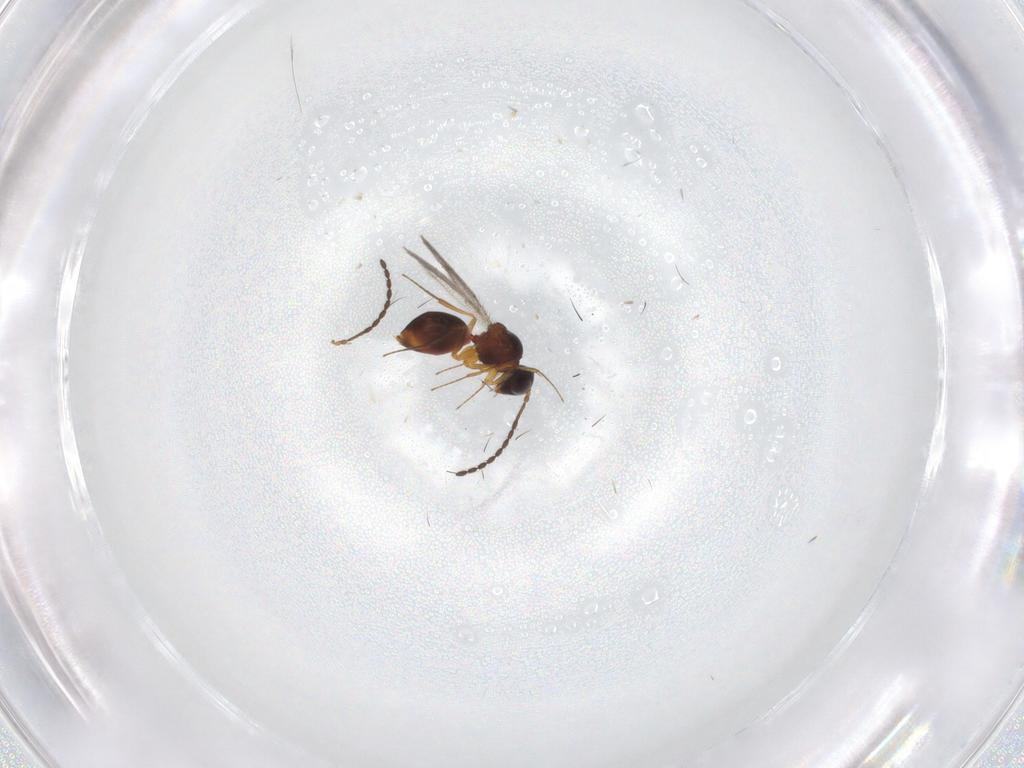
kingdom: Animalia
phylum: Arthropoda
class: Insecta
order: Hymenoptera
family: Figitidae
